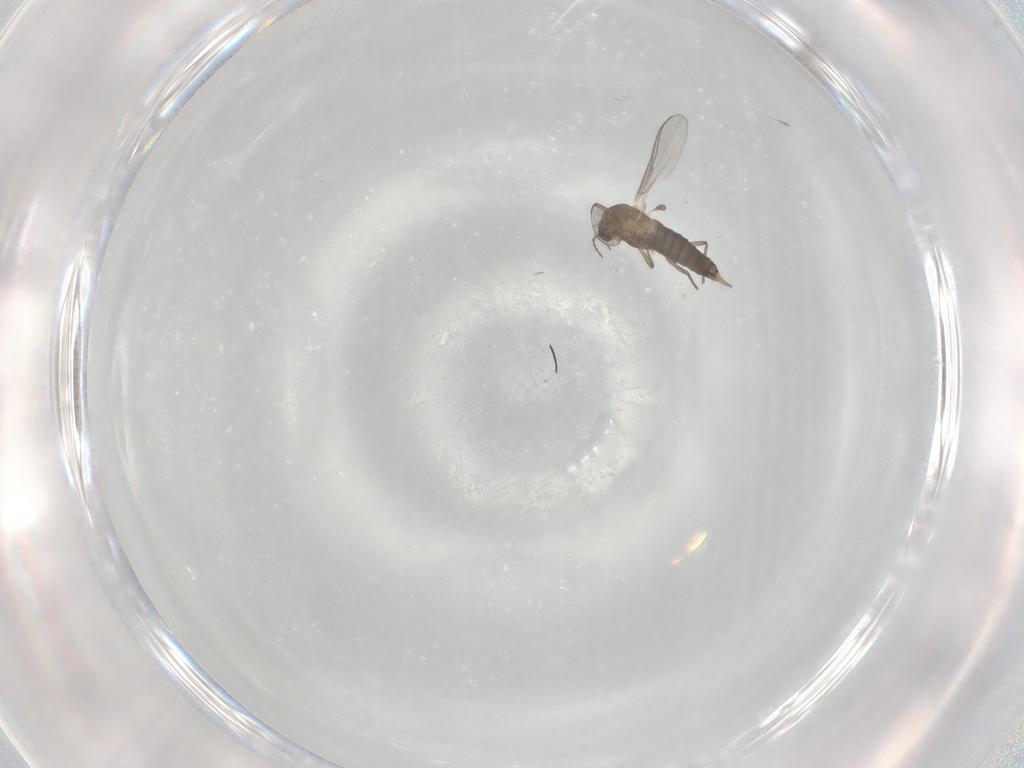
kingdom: Animalia
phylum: Arthropoda
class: Insecta
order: Diptera
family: Chironomidae
